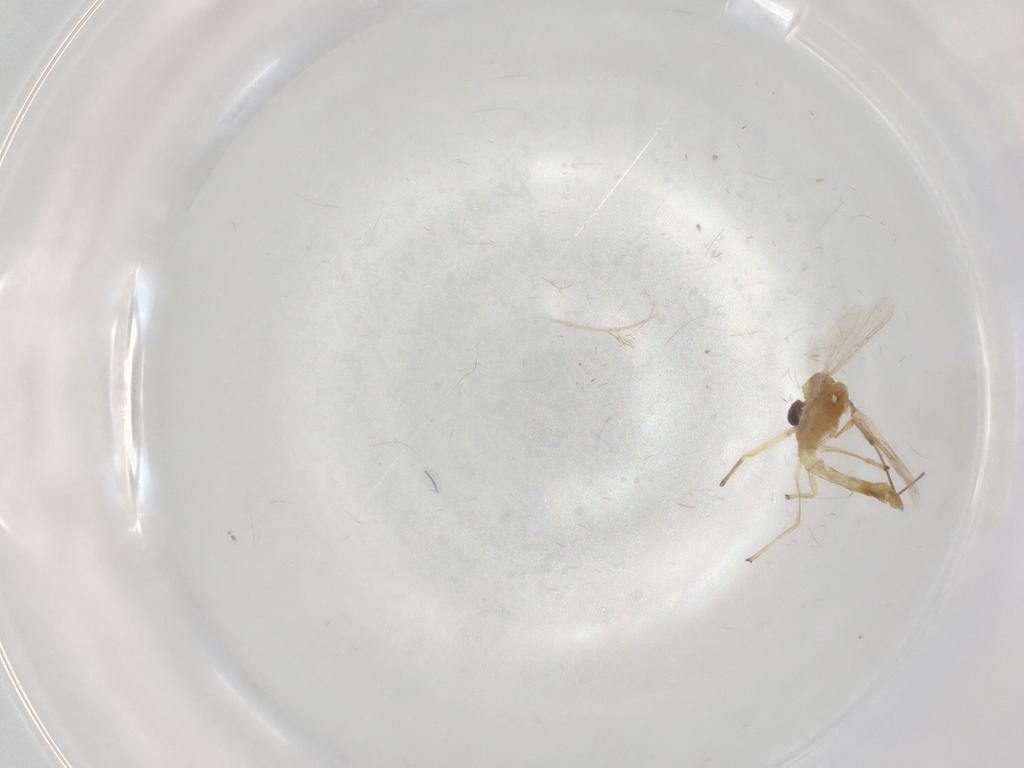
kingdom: Animalia
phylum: Arthropoda
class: Insecta
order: Diptera
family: Chironomidae
